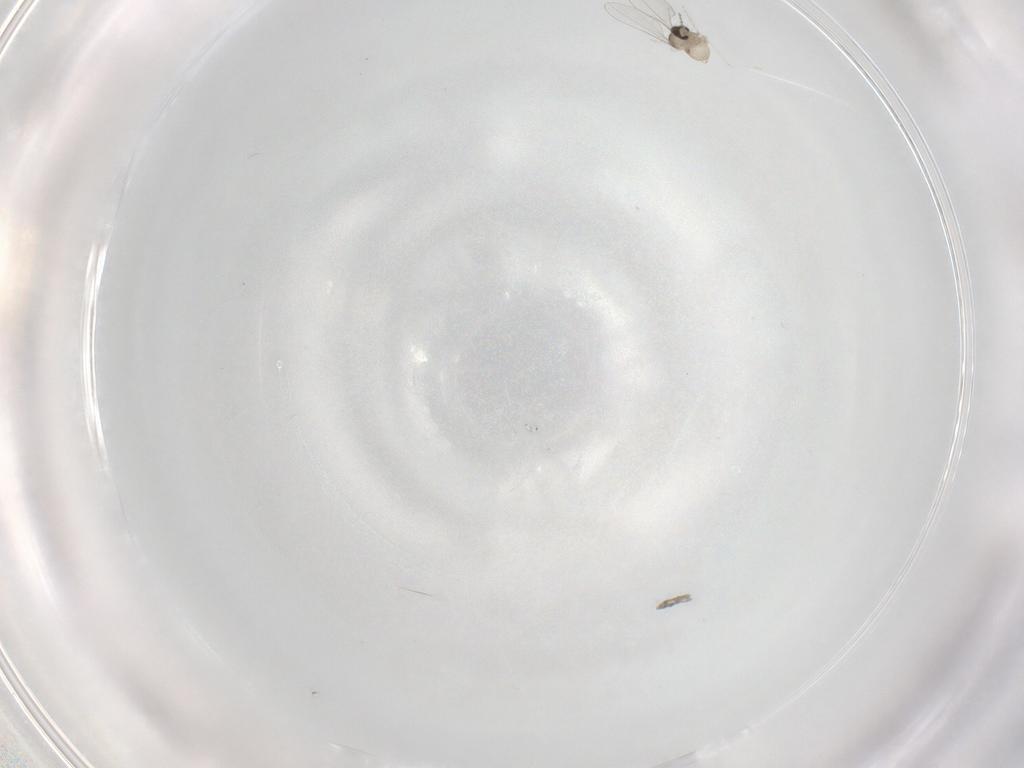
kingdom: Animalia
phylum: Arthropoda
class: Insecta
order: Diptera
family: Cecidomyiidae
